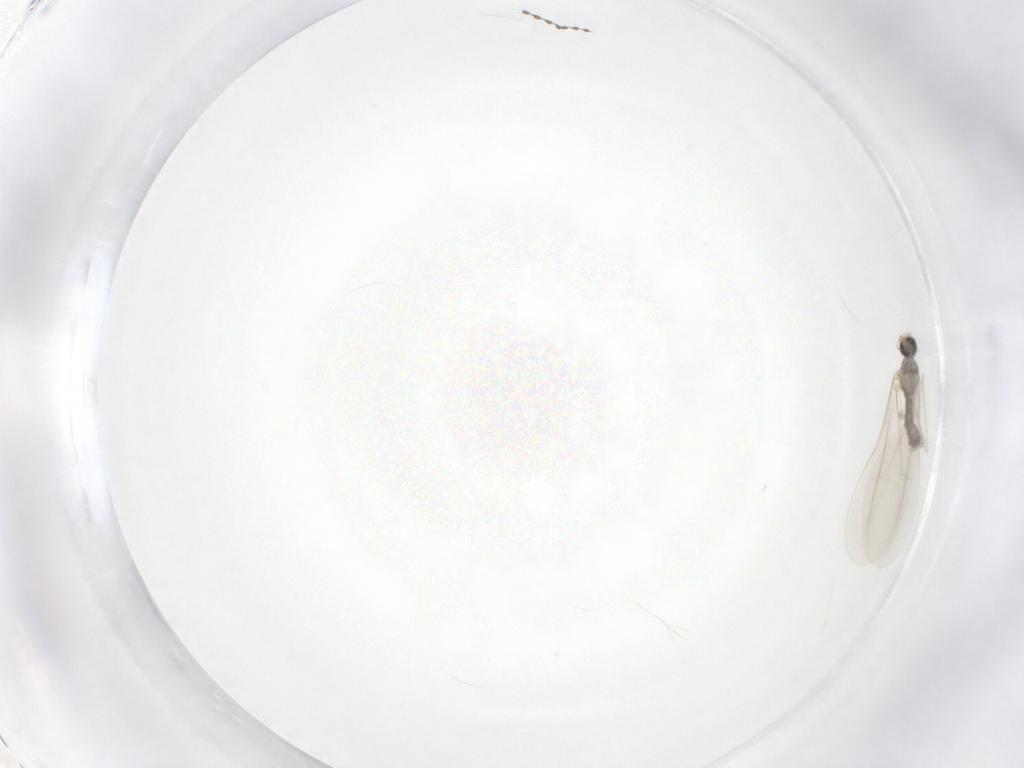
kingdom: Animalia
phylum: Arthropoda
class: Insecta
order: Diptera
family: Cecidomyiidae
